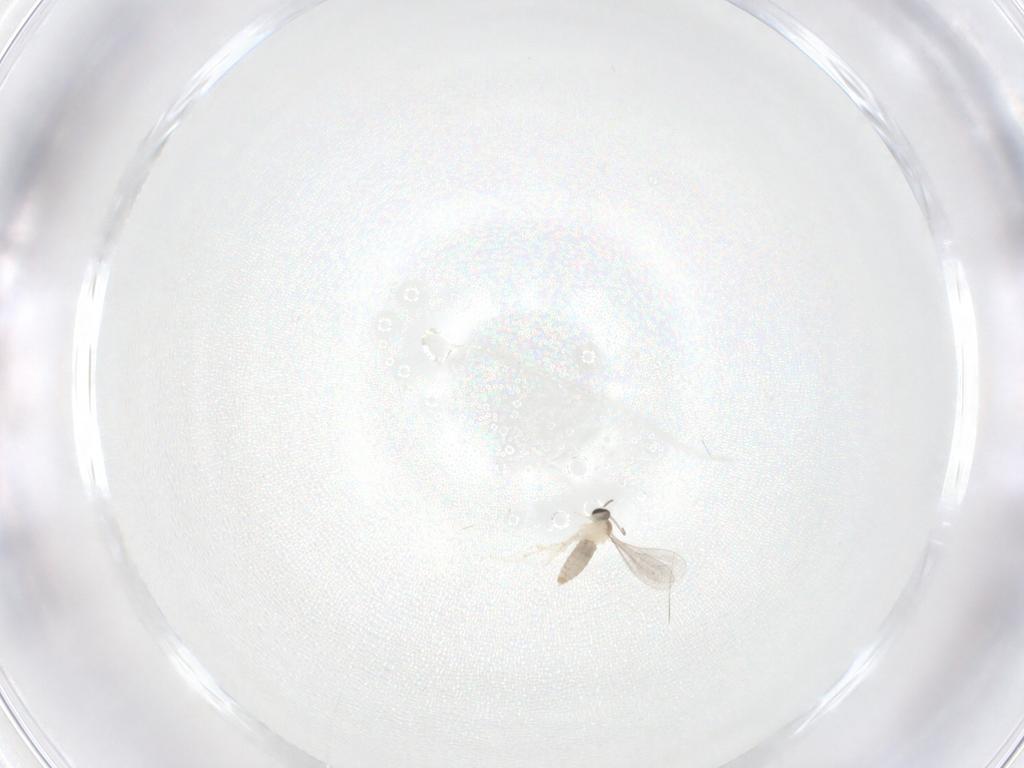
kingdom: Animalia
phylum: Arthropoda
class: Insecta
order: Diptera
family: Cecidomyiidae
